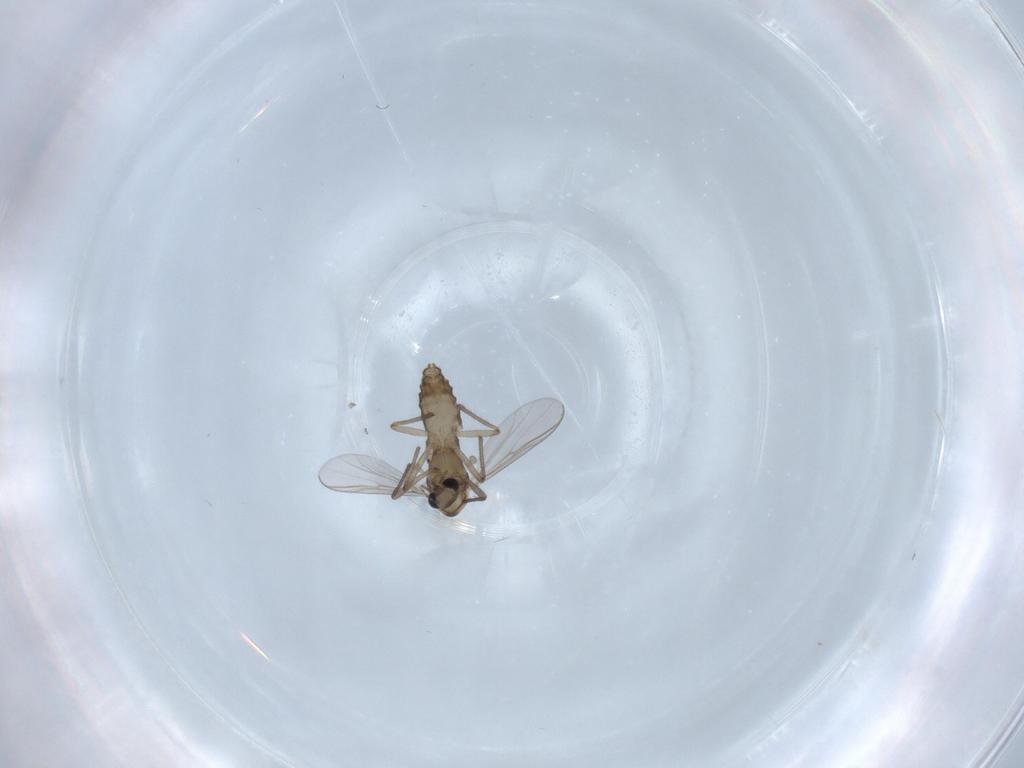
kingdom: Animalia
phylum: Arthropoda
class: Insecta
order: Diptera
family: Chironomidae
